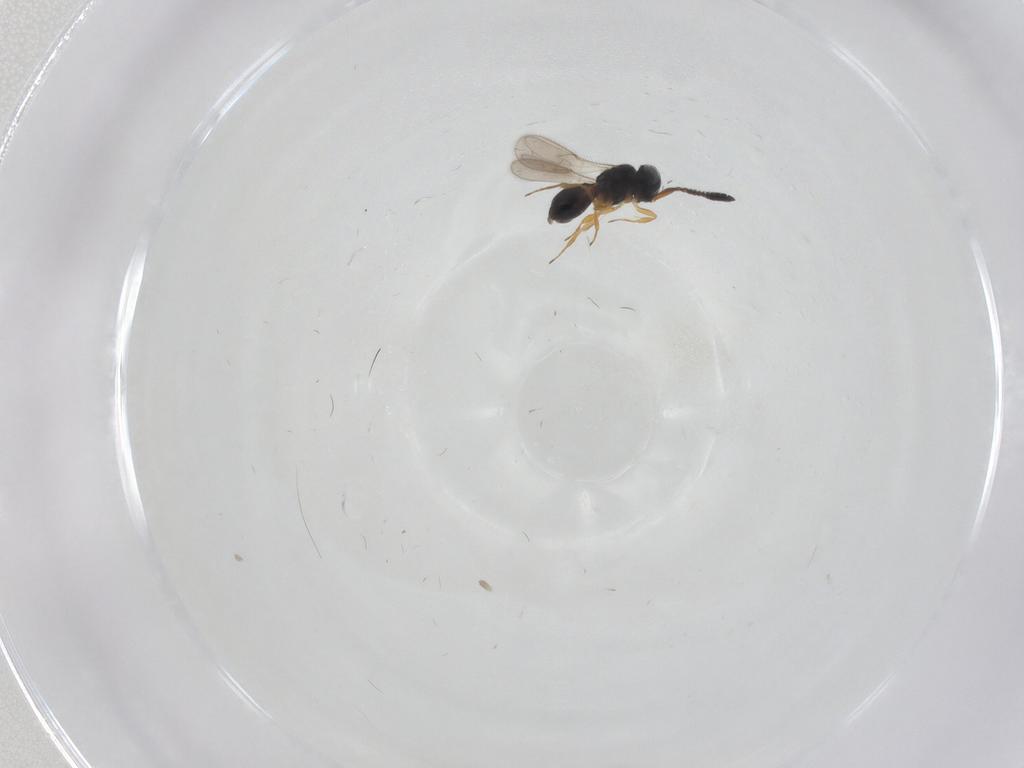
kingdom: Animalia
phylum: Arthropoda
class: Insecta
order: Hymenoptera
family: Scelionidae
